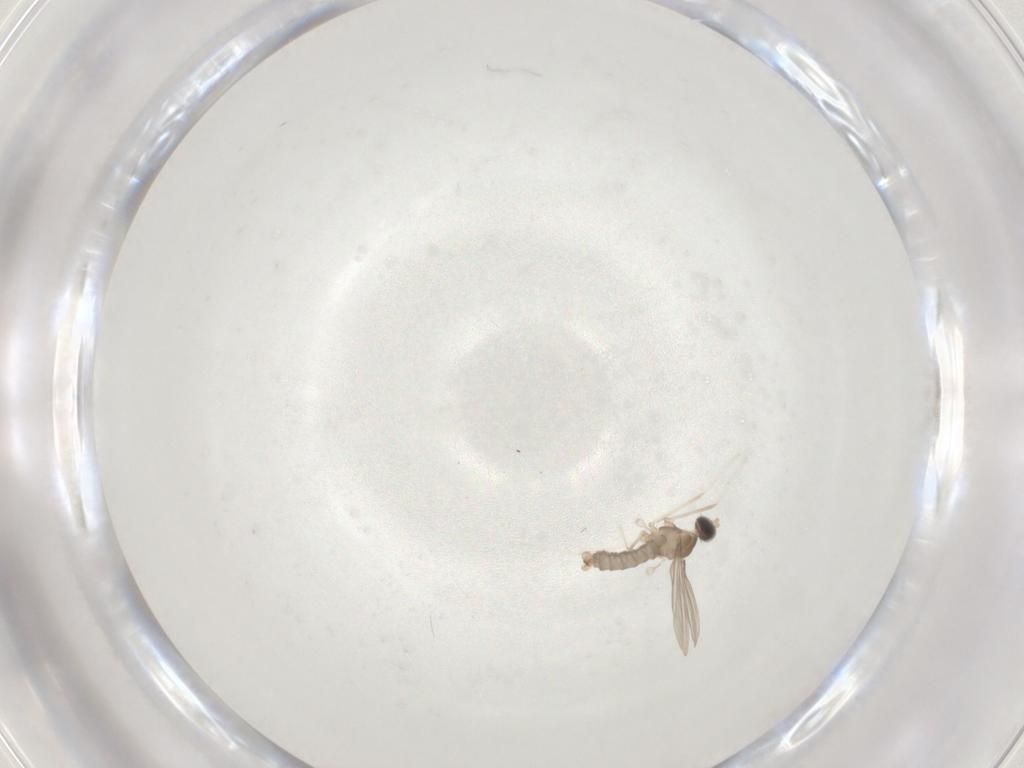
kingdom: Animalia
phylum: Arthropoda
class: Insecta
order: Diptera
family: Cecidomyiidae
